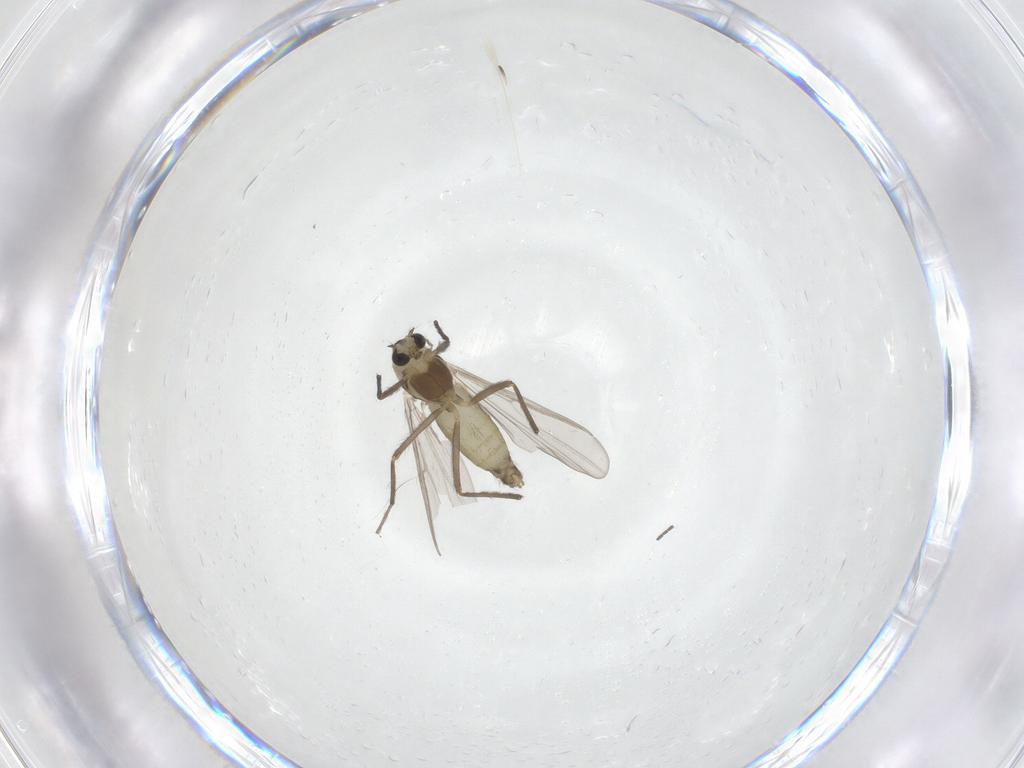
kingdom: Animalia
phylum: Arthropoda
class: Insecta
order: Diptera
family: Chironomidae
